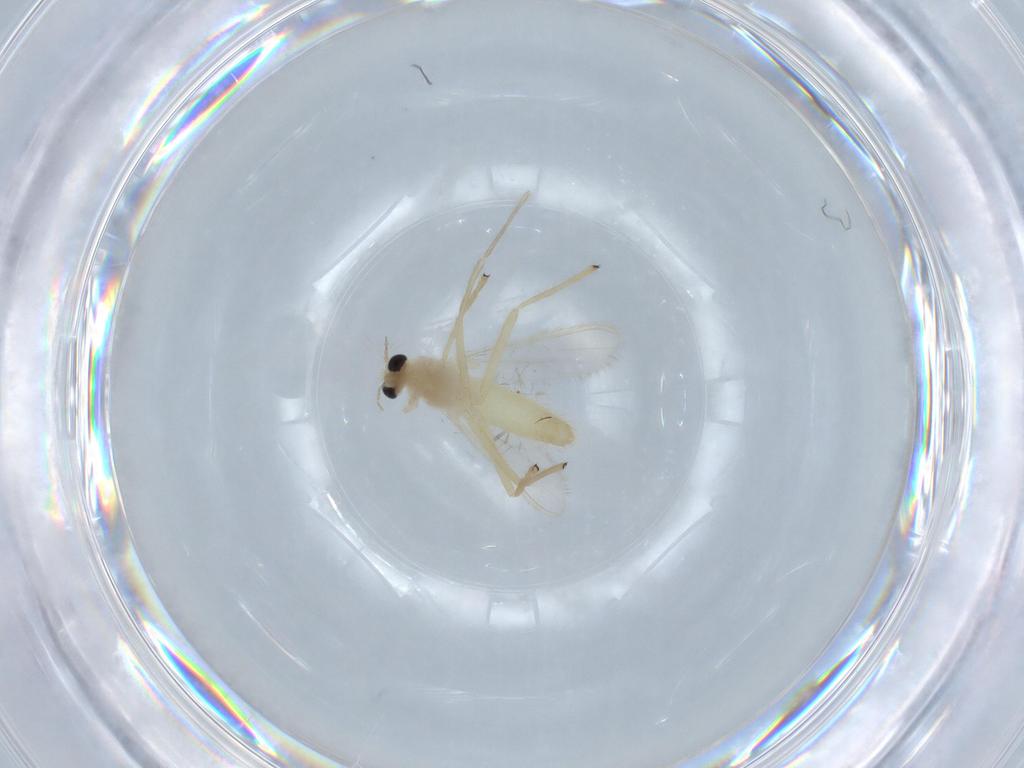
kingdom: Animalia
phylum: Arthropoda
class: Insecta
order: Diptera
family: Chironomidae
